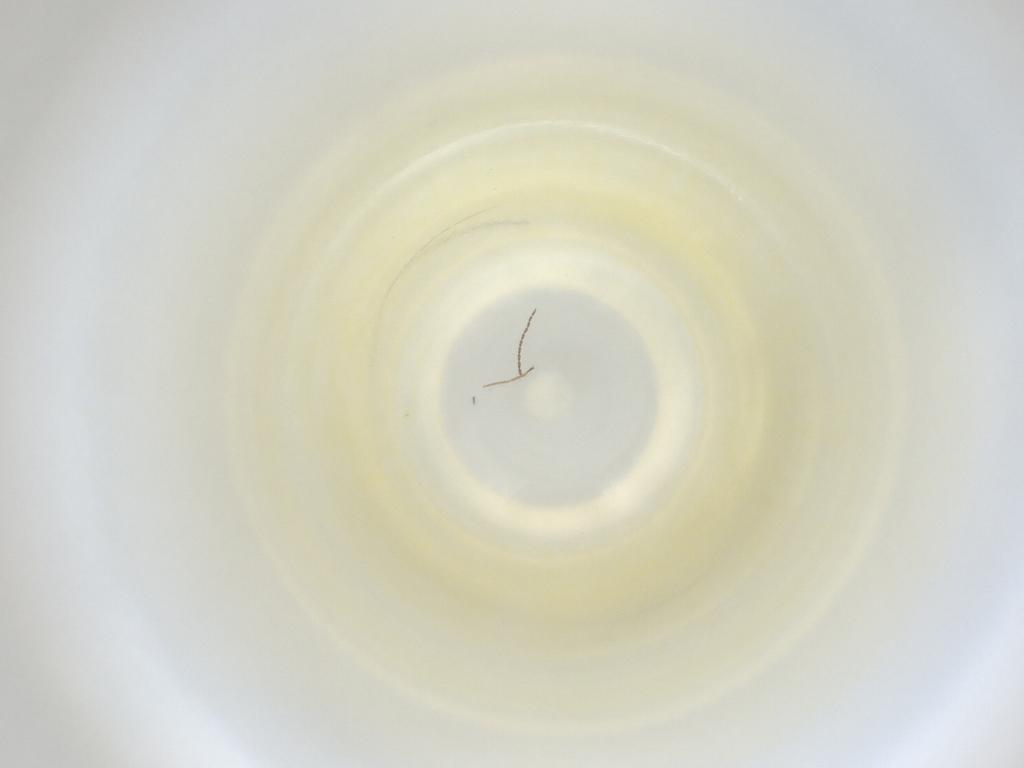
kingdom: Animalia
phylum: Arthropoda
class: Insecta
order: Diptera
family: Cecidomyiidae
